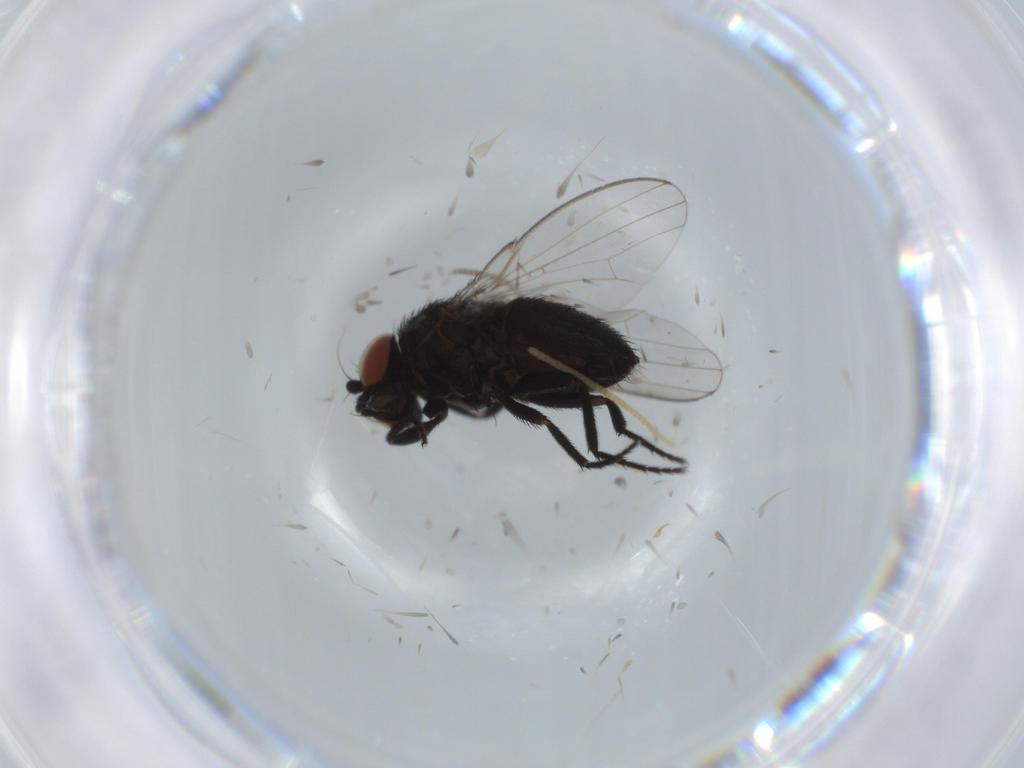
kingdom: Animalia
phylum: Arthropoda
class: Insecta
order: Diptera
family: Milichiidae
